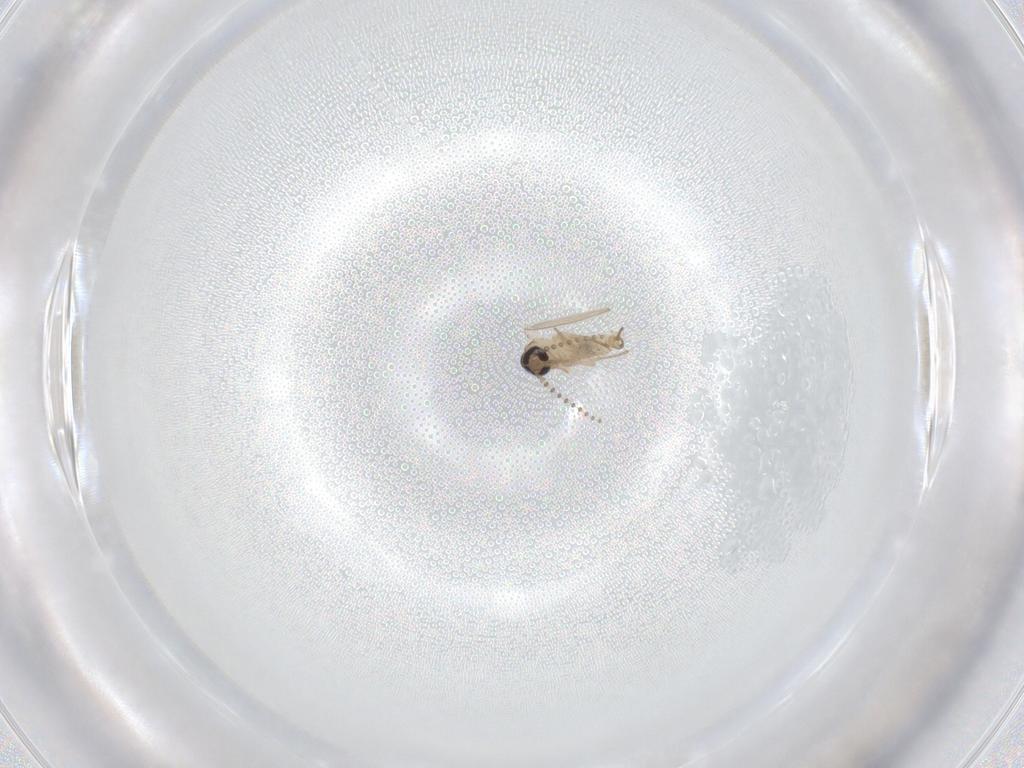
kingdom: Animalia
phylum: Arthropoda
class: Insecta
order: Diptera
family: Psychodidae
